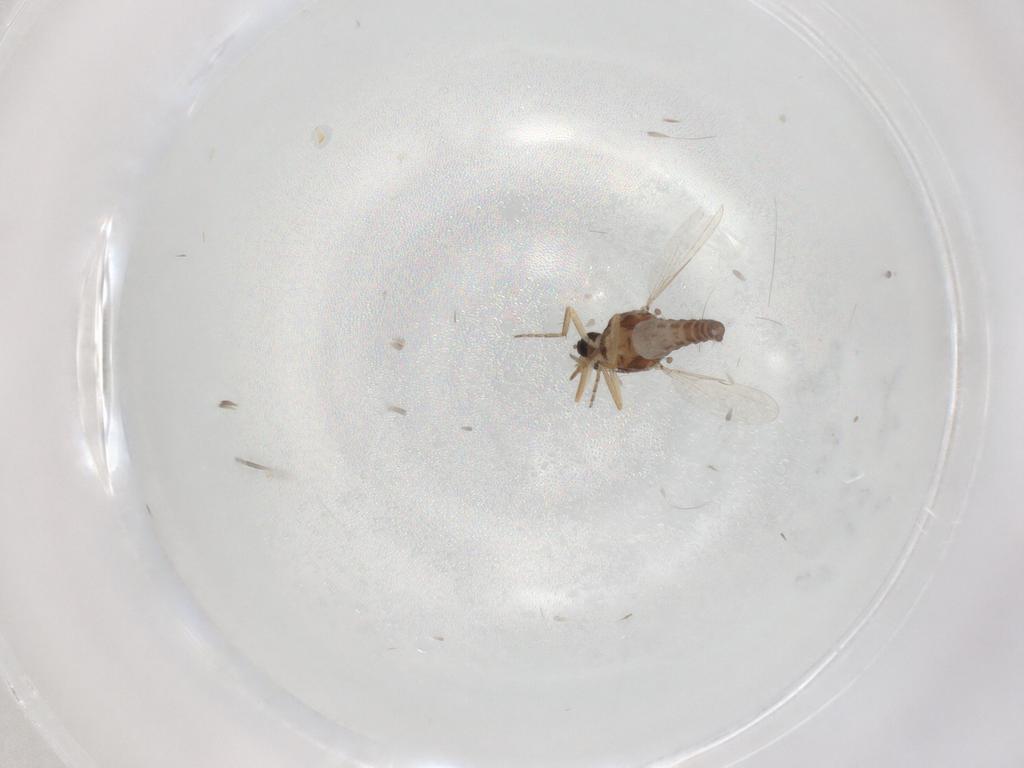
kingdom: Animalia
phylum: Arthropoda
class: Insecta
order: Diptera
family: Ceratopogonidae
